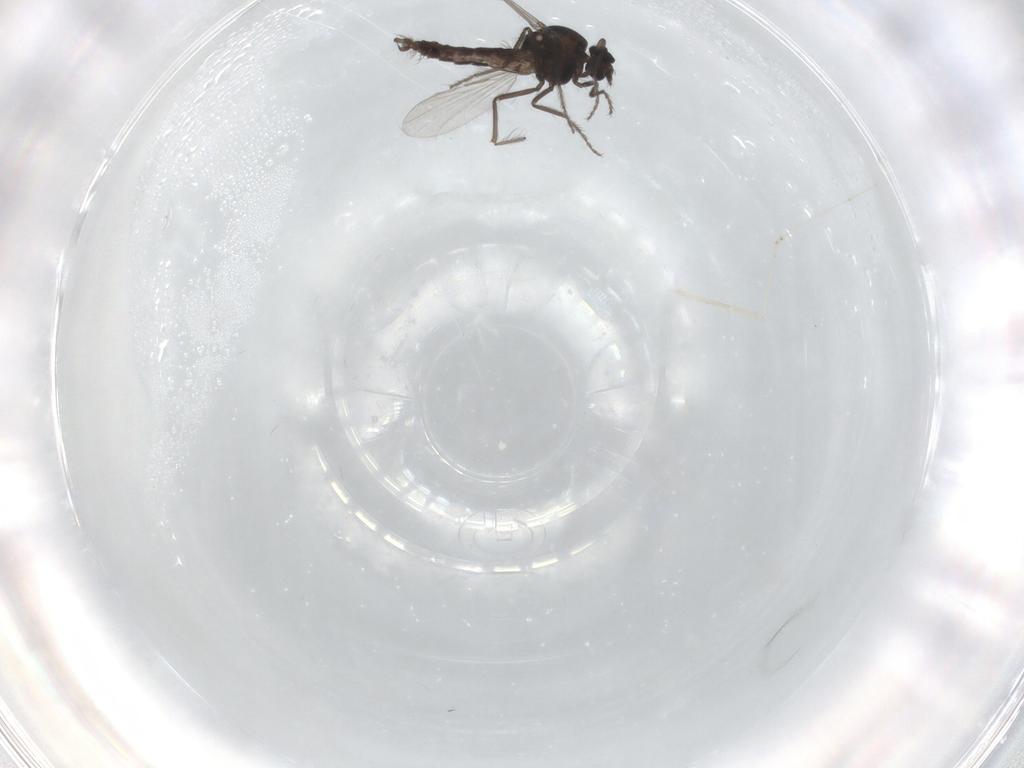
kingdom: Animalia
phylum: Arthropoda
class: Insecta
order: Diptera
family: Ceratopogonidae
